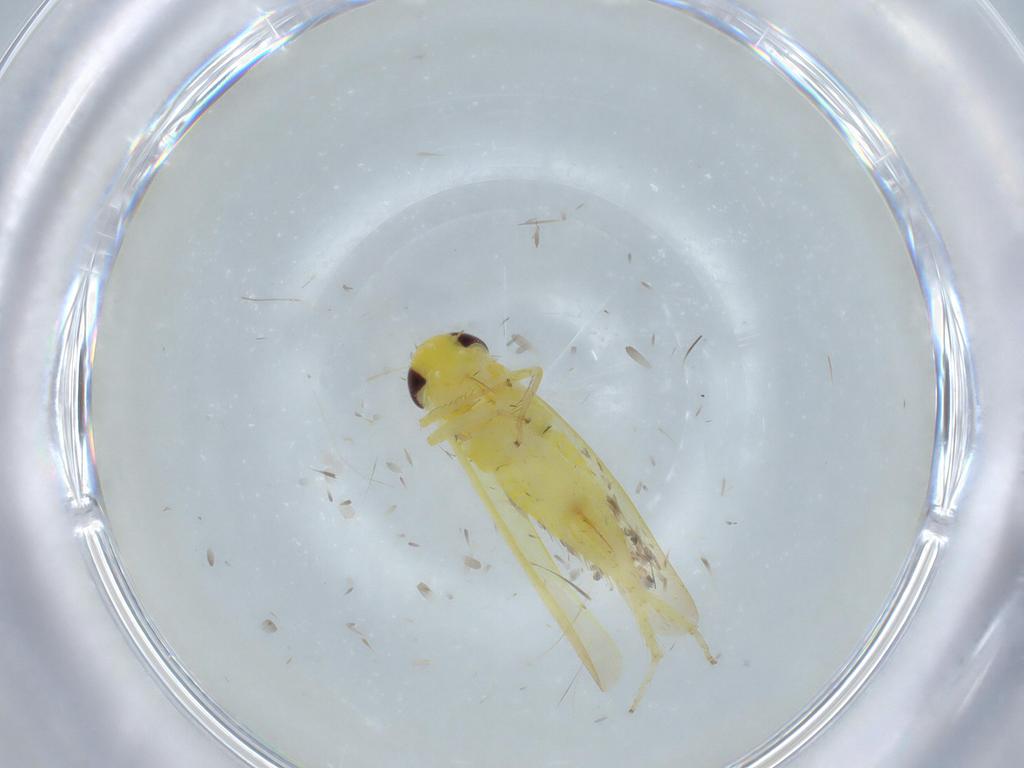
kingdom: Animalia
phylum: Arthropoda
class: Insecta
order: Hemiptera
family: Cicadellidae
